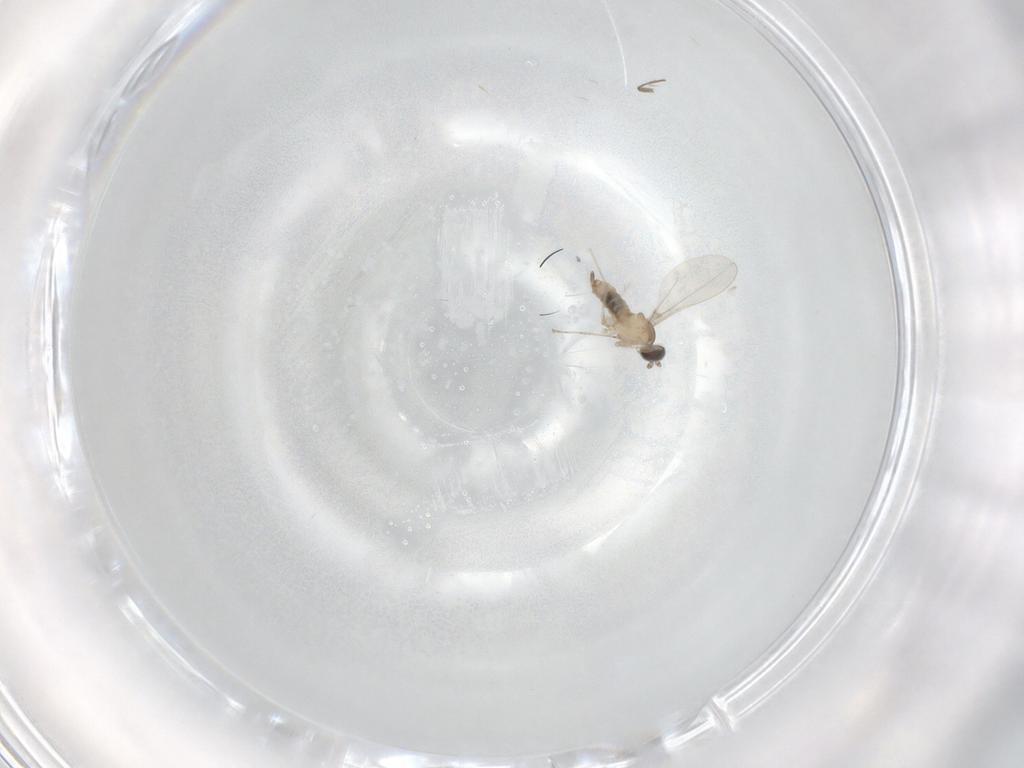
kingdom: Animalia
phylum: Arthropoda
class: Insecta
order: Diptera
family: Cecidomyiidae
